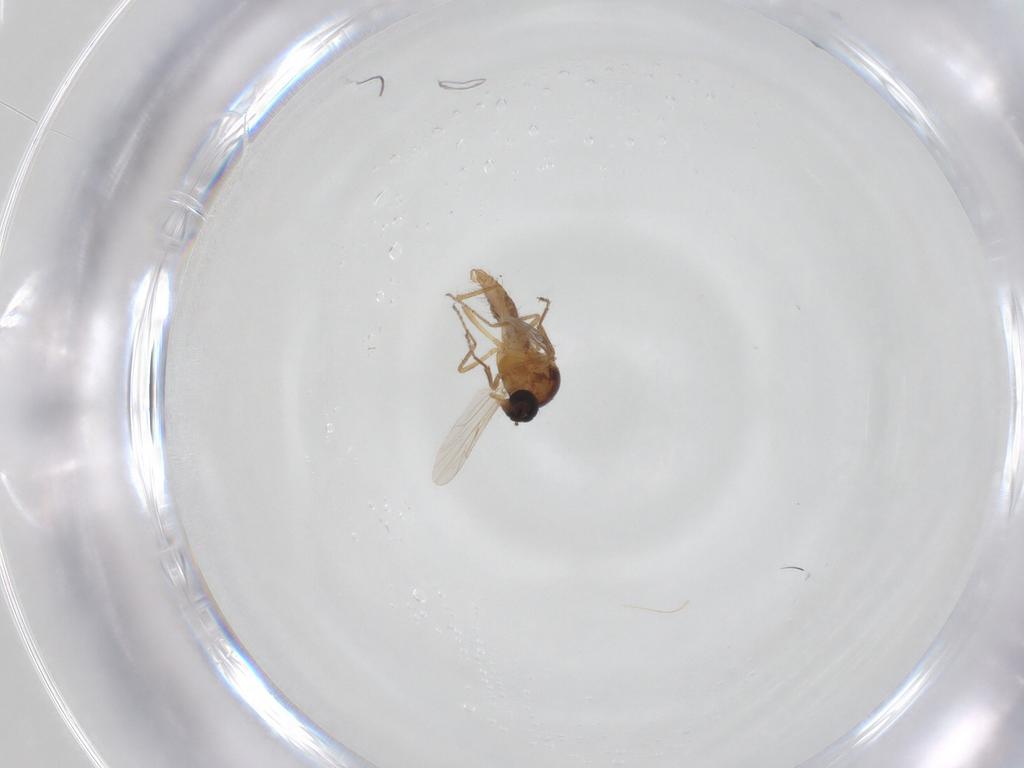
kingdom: Animalia
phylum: Arthropoda
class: Insecta
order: Diptera
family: Ceratopogonidae
